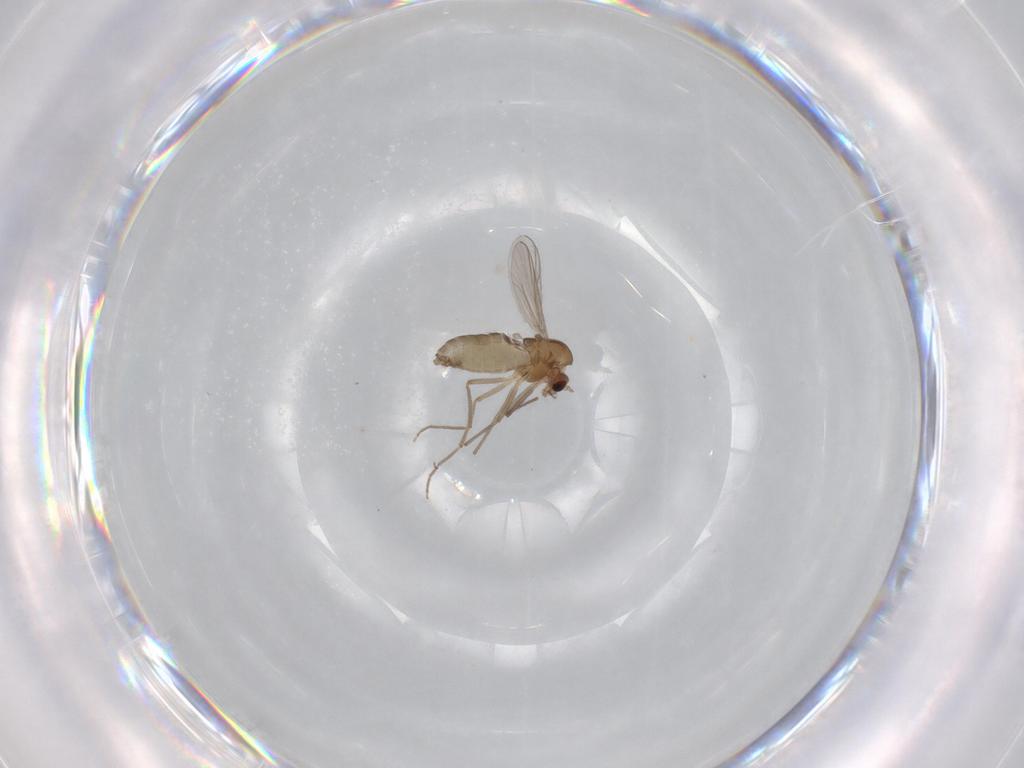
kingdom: Animalia
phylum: Arthropoda
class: Insecta
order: Diptera
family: Chironomidae
